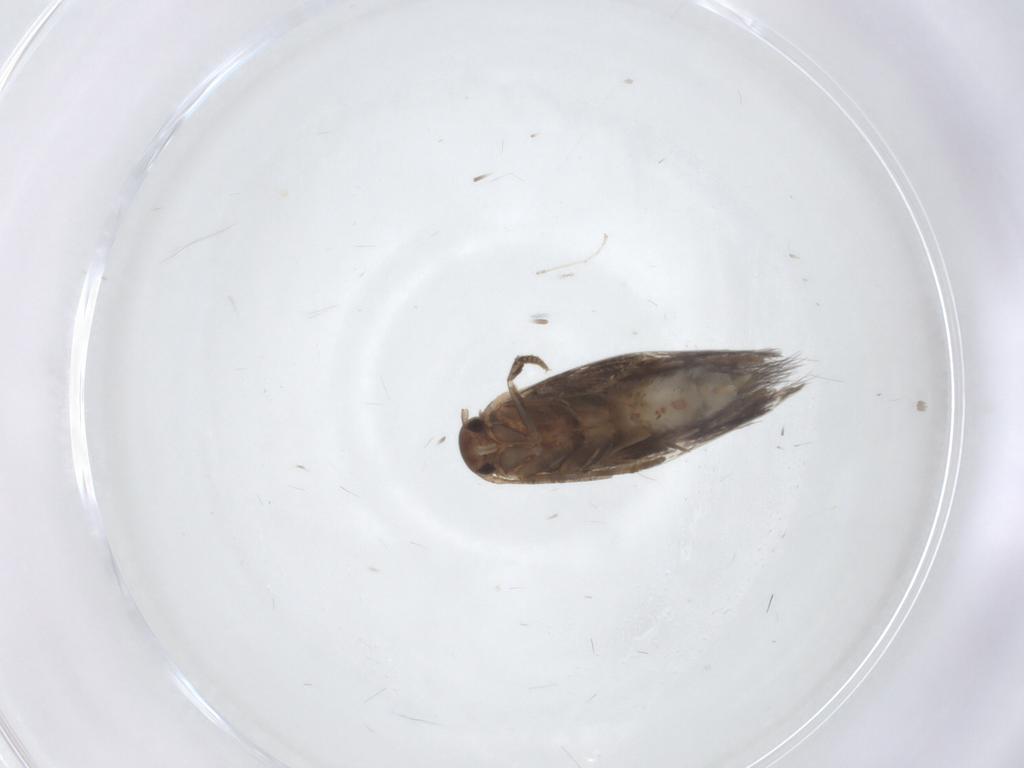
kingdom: Animalia
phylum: Arthropoda
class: Insecta
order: Lepidoptera
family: Elachistidae
